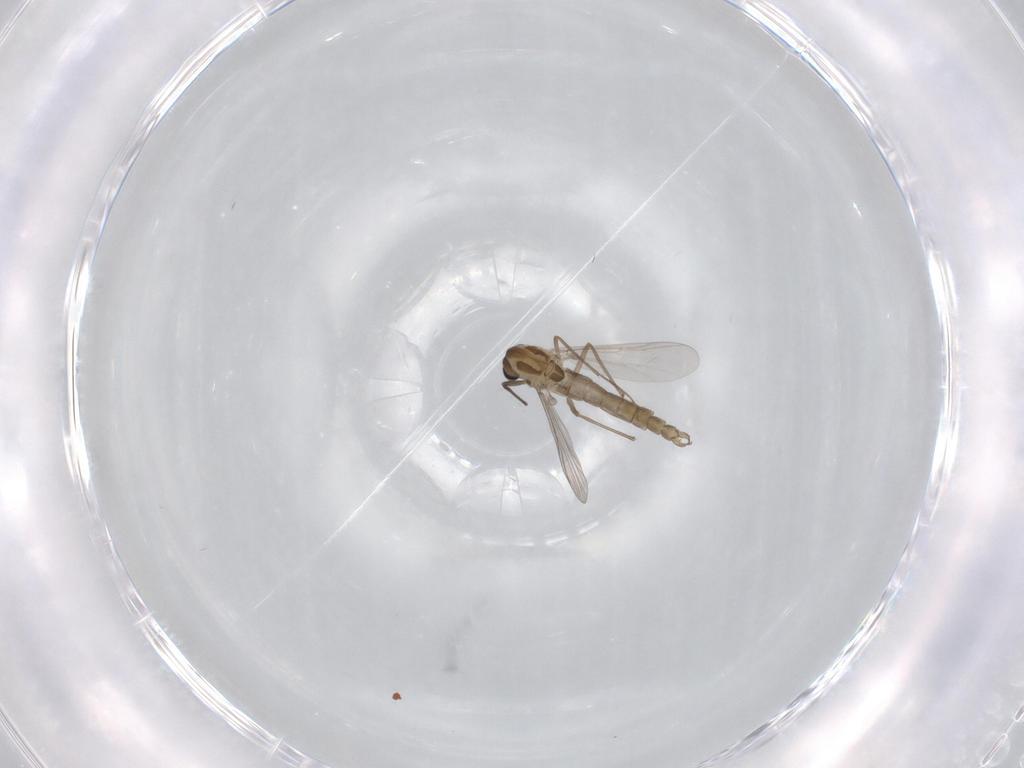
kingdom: Animalia
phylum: Arthropoda
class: Insecta
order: Diptera
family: Chironomidae
